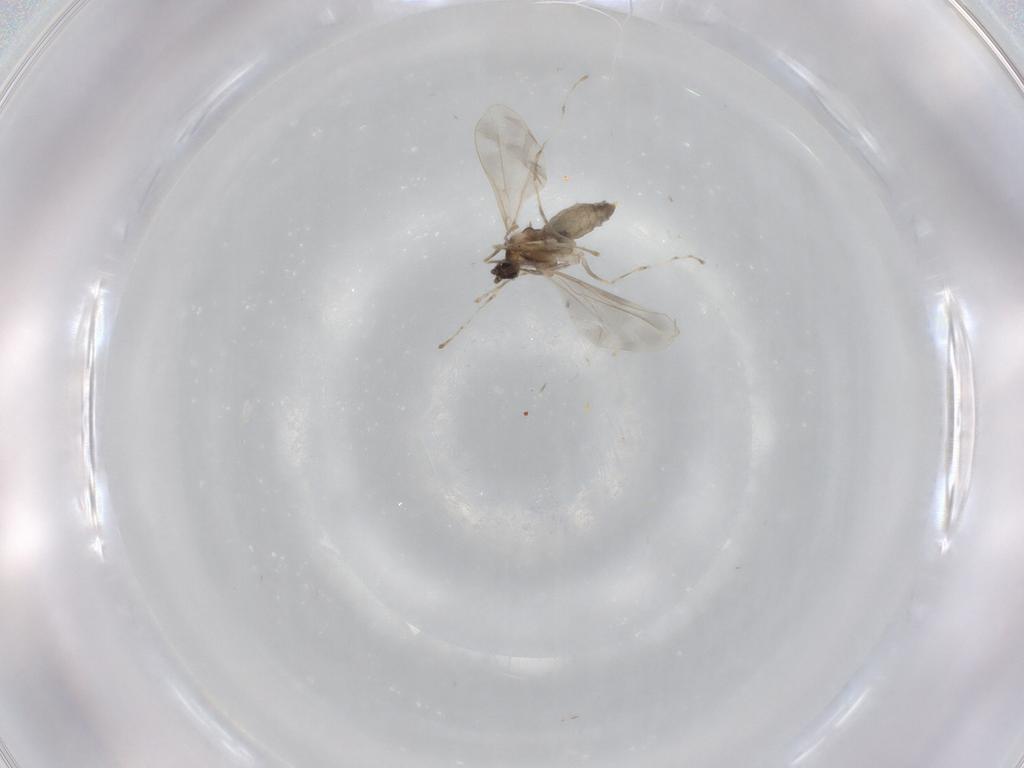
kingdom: Animalia
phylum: Arthropoda
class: Insecta
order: Diptera
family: Cecidomyiidae
